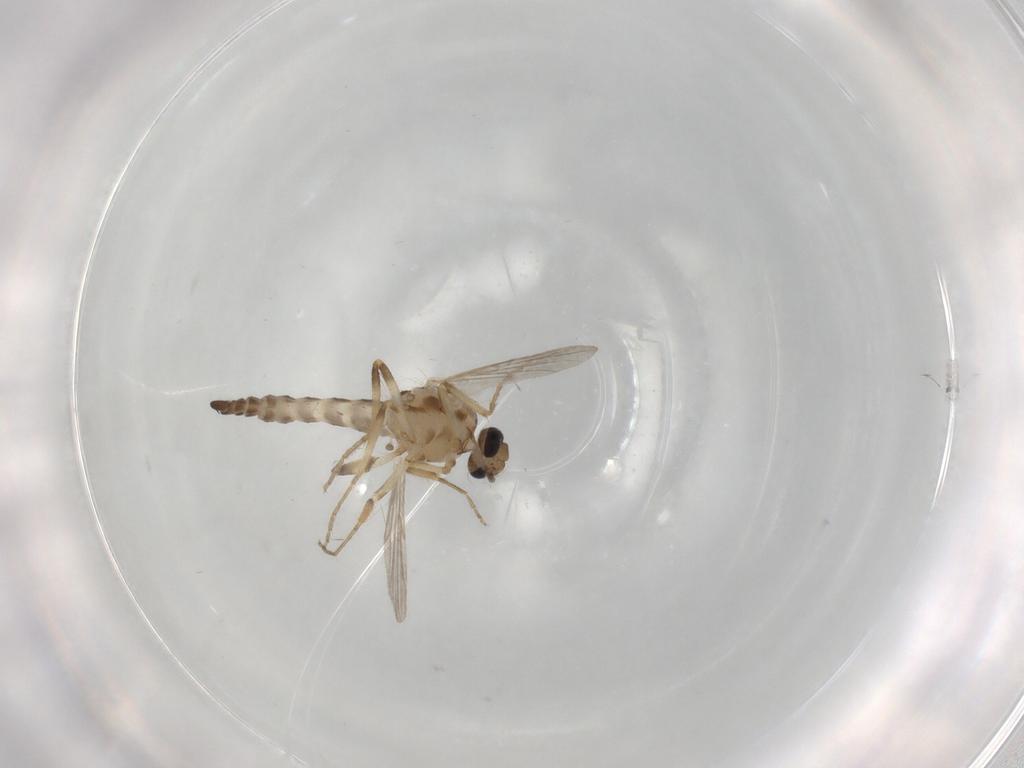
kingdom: Animalia
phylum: Arthropoda
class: Insecta
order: Diptera
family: Ceratopogonidae
